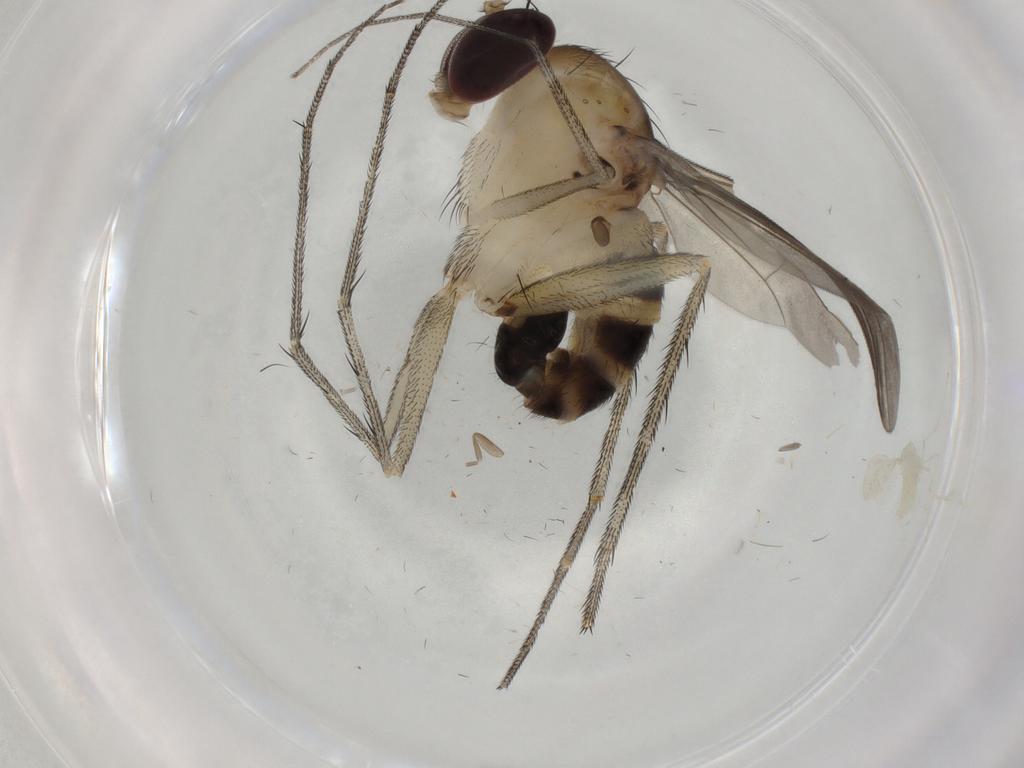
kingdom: Animalia
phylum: Arthropoda
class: Insecta
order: Diptera
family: Cecidomyiidae
